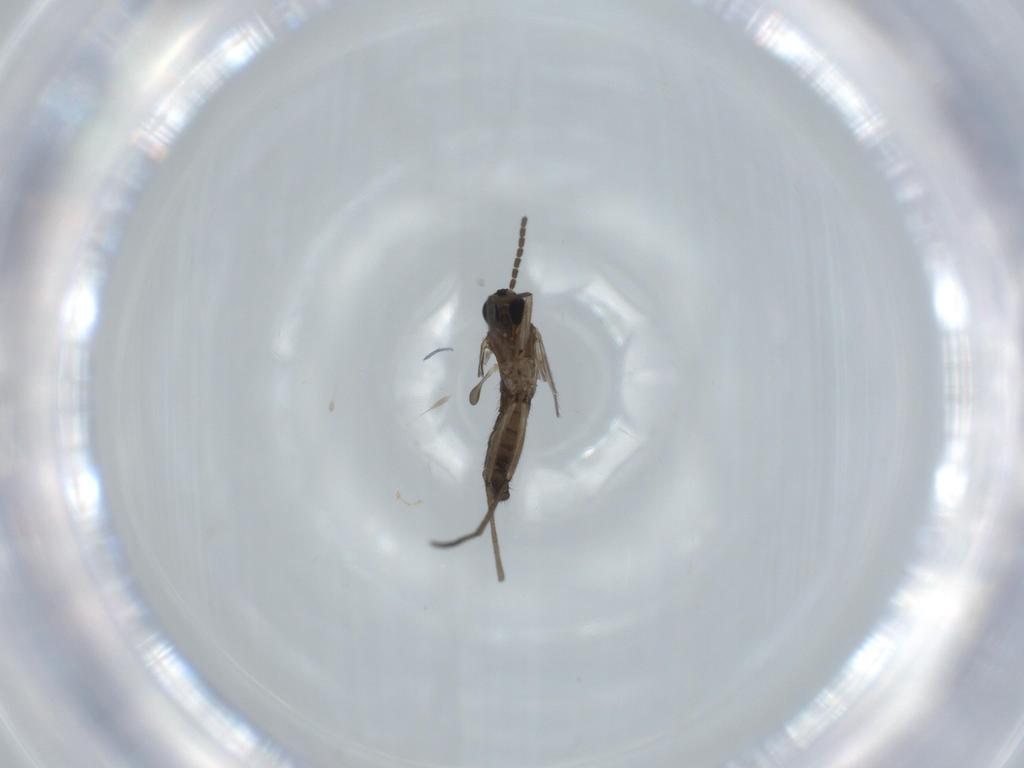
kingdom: Animalia
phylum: Arthropoda
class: Insecta
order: Diptera
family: Sciaridae
